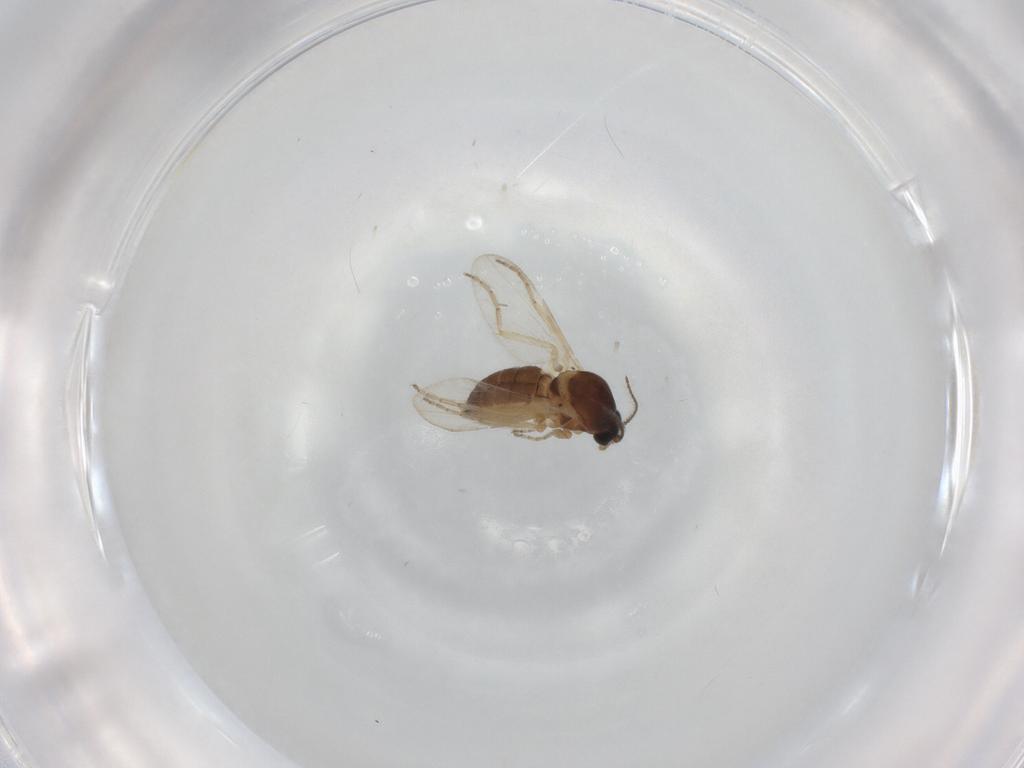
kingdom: Animalia
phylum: Arthropoda
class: Insecta
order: Diptera
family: Ceratopogonidae
